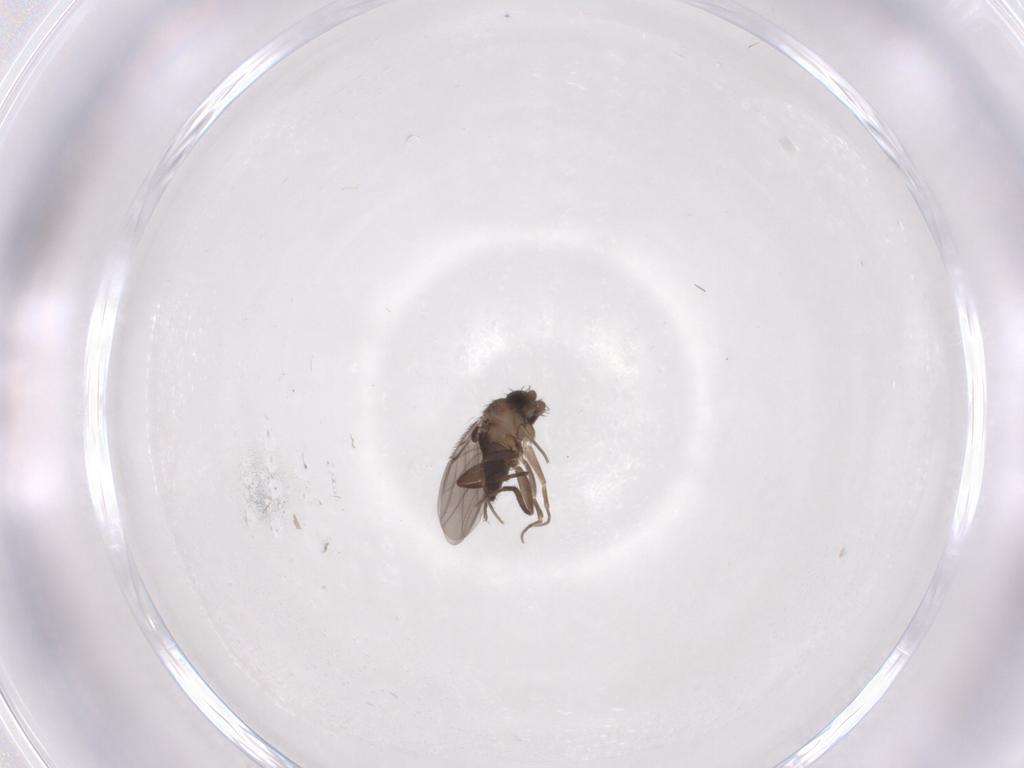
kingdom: Animalia
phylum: Arthropoda
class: Insecta
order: Diptera
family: Phoridae
